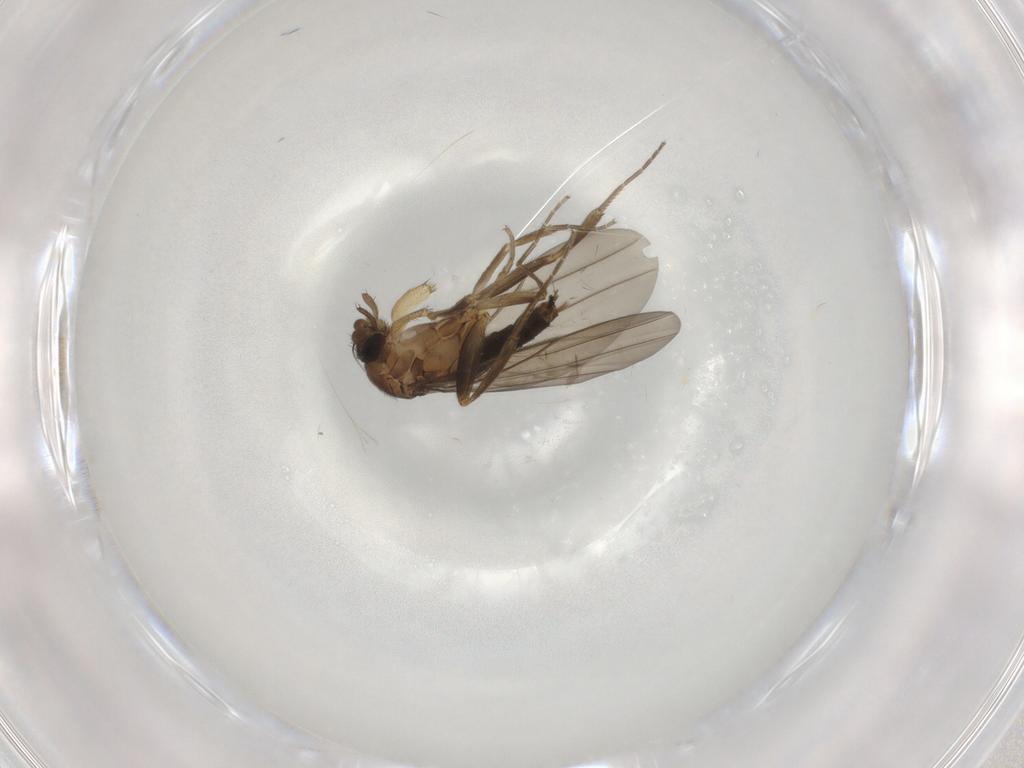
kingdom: Animalia
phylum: Arthropoda
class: Insecta
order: Diptera
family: Phoridae
